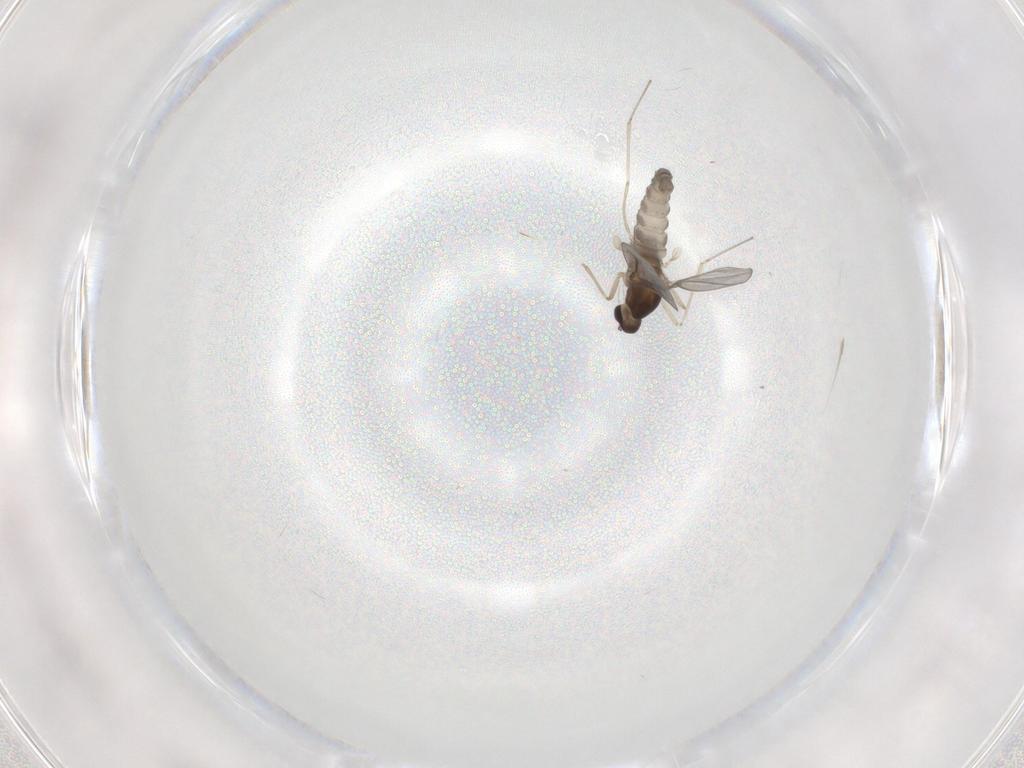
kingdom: Animalia
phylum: Arthropoda
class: Insecta
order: Diptera
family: Cecidomyiidae
